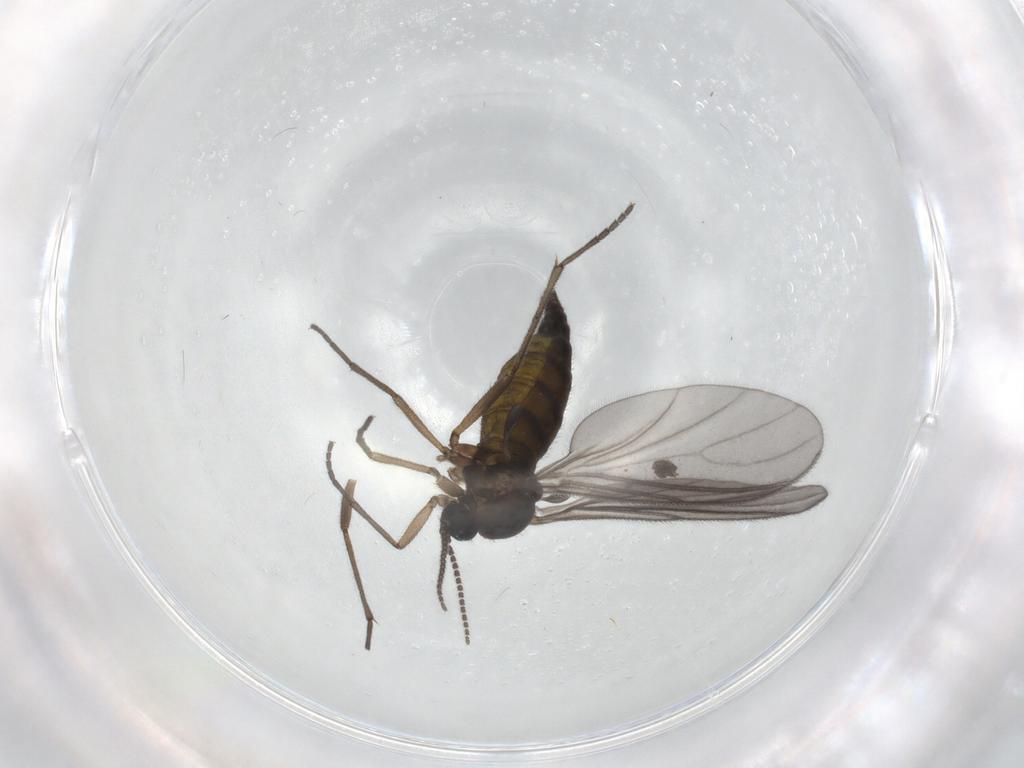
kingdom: Animalia
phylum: Arthropoda
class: Insecta
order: Diptera
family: Sciaridae
